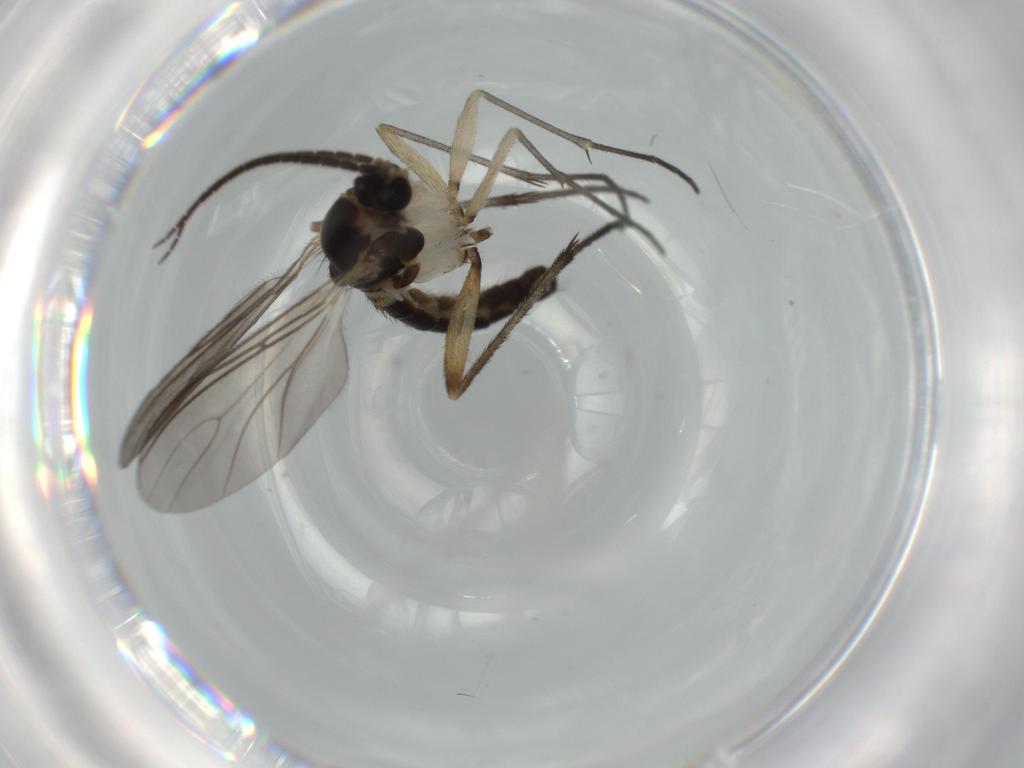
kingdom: Animalia
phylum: Arthropoda
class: Insecta
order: Diptera
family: Sciaridae
